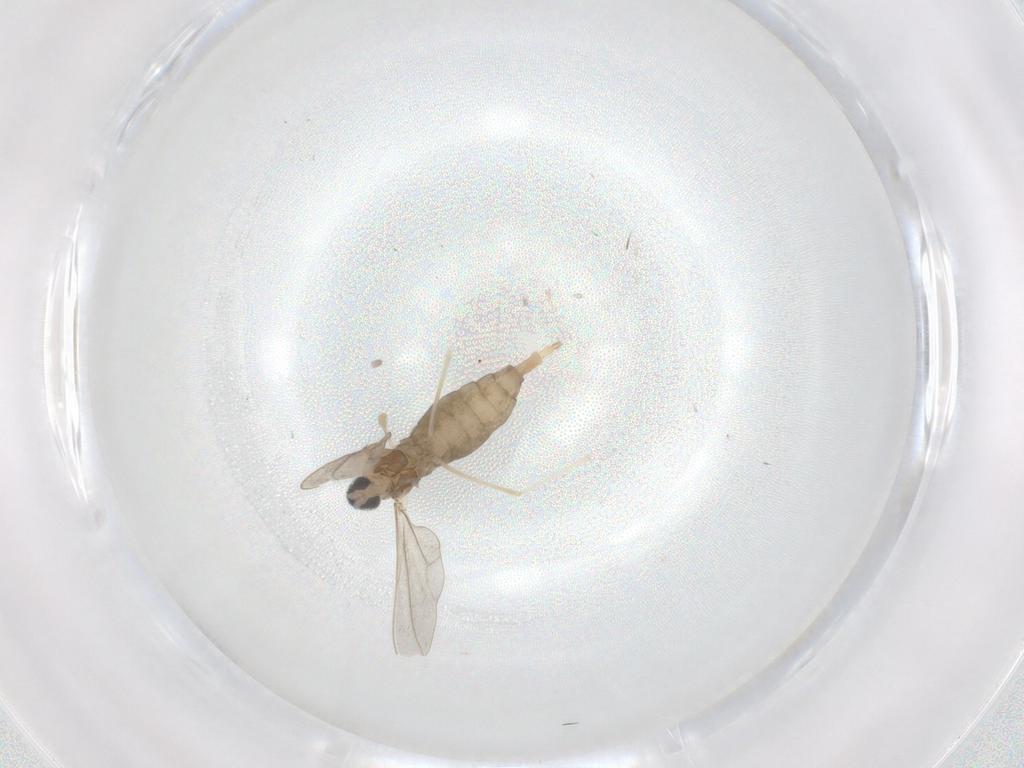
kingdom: Animalia
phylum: Arthropoda
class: Insecta
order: Diptera
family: Cecidomyiidae
